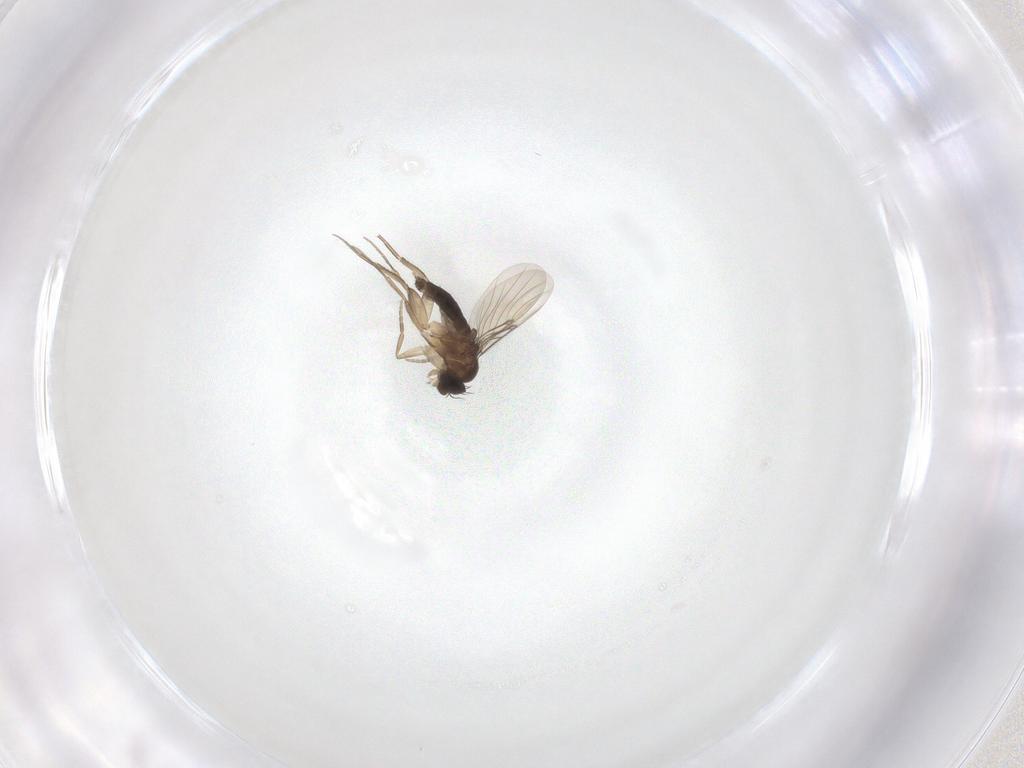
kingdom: Animalia
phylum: Arthropoda
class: Insecta
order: Diptera
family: Phoridae
